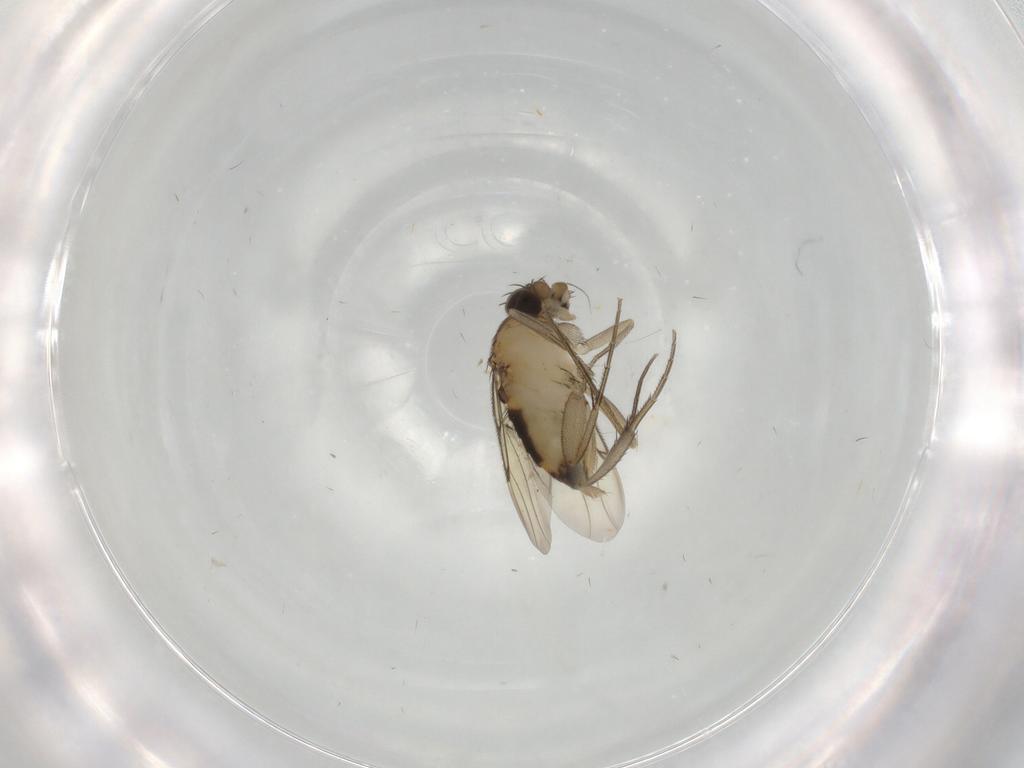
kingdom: Animalia
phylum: Arthropoda
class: Insecta
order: Diptera
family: Phoridae
